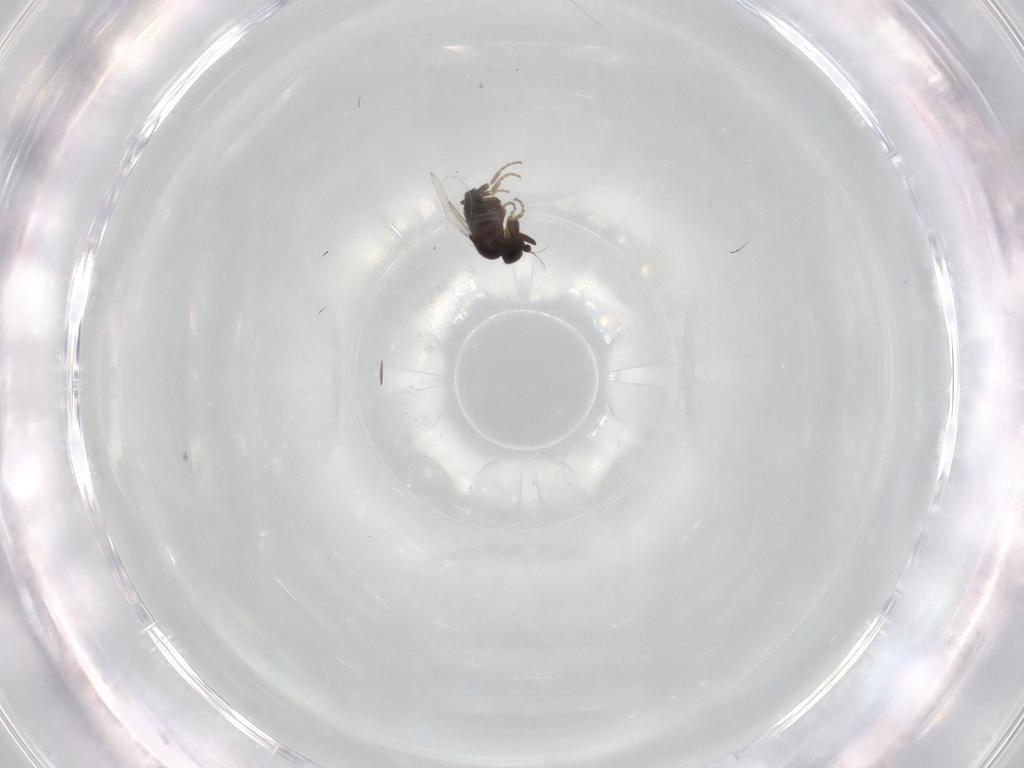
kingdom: Animalia
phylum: Arthropoda
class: Insecta
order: Diptera
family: Phoridae
